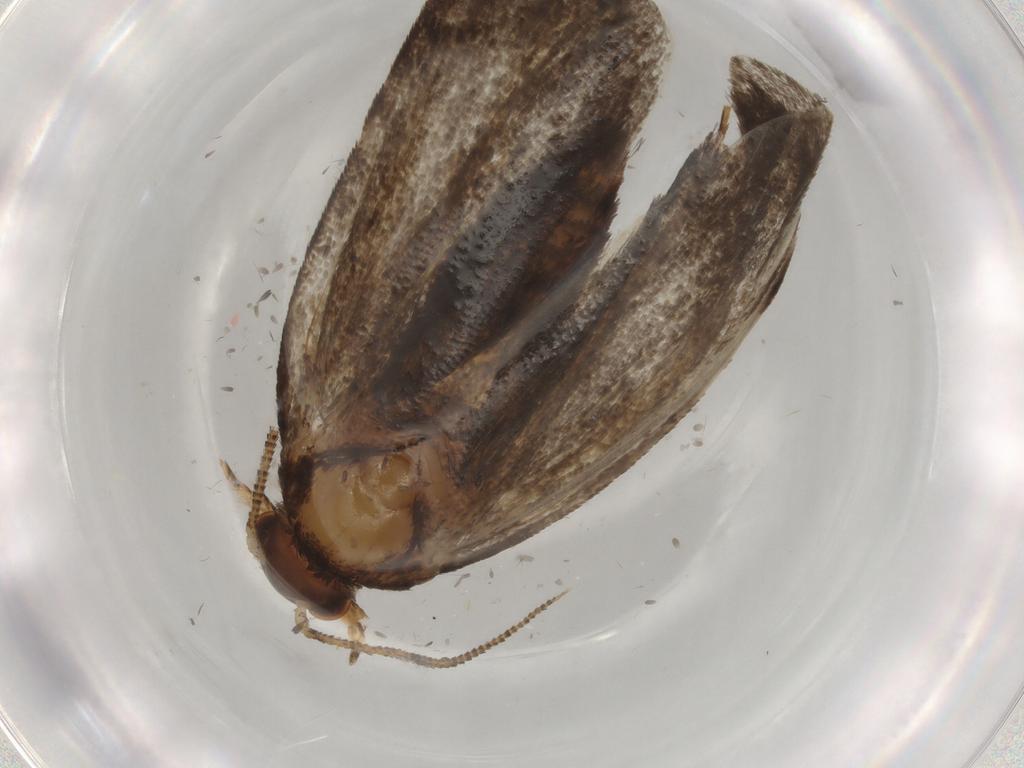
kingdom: Animalia
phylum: Arthropoda
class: Insecta
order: Lepidoptera
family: Tineidae
